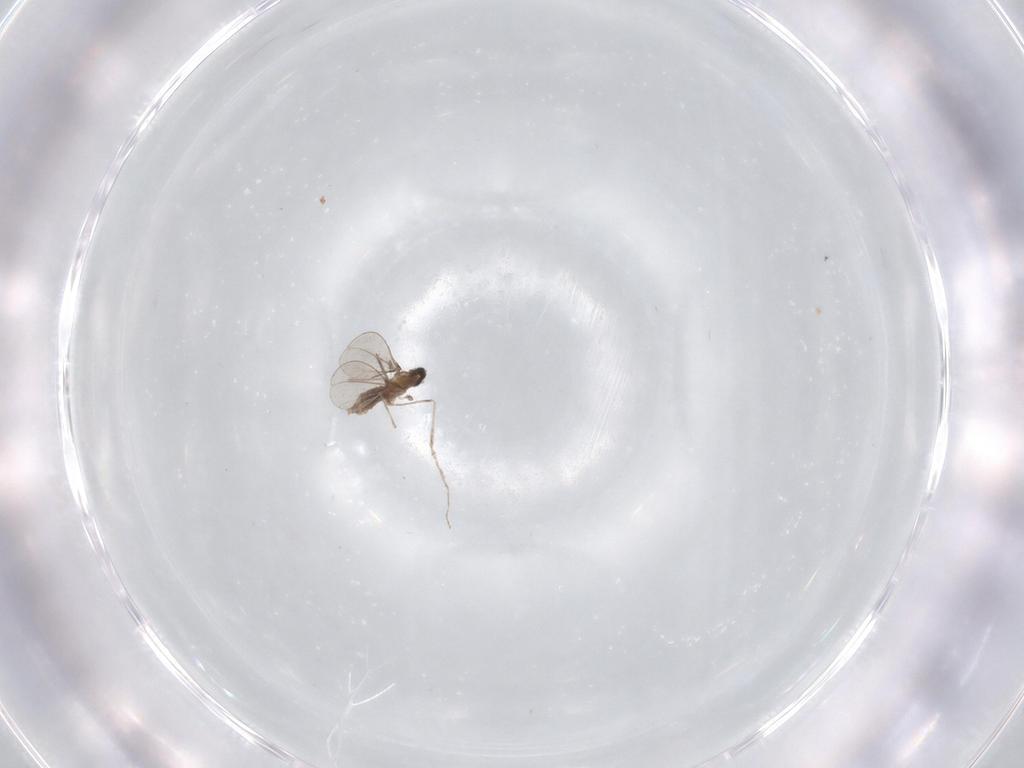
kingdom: Animalia
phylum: Arthropoda
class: Insecta
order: Diptera
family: Cecidomyiidae
